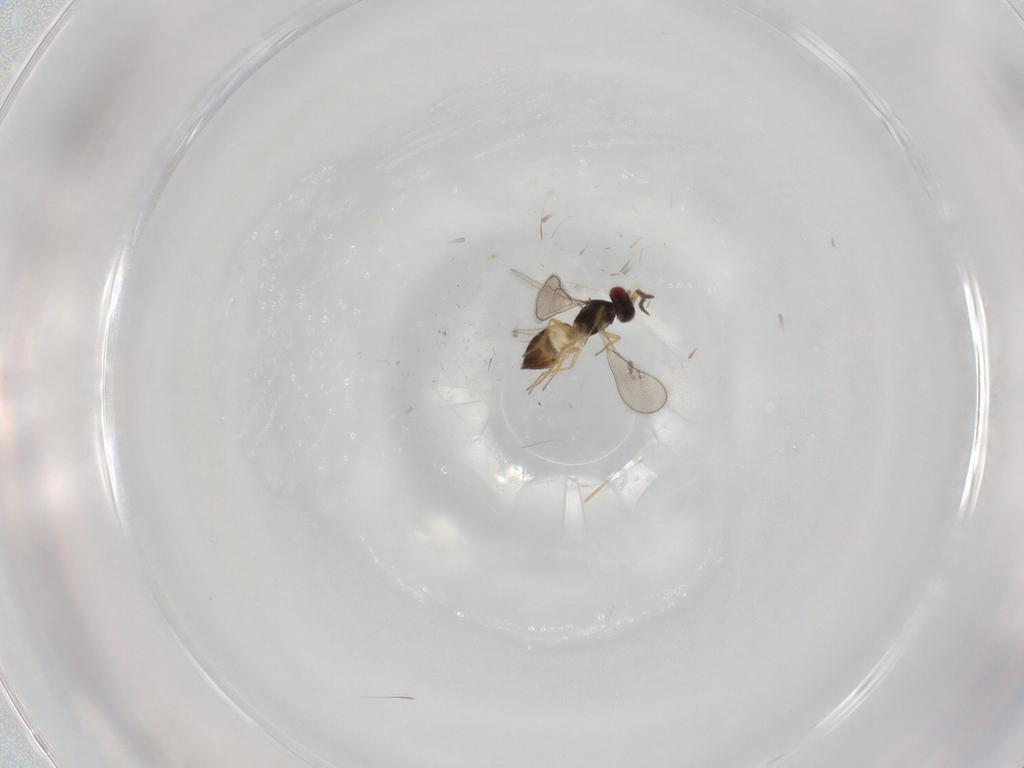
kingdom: Animalia
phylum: Arthropoda
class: Insecta
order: Hymenoptera
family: Eulophidae
